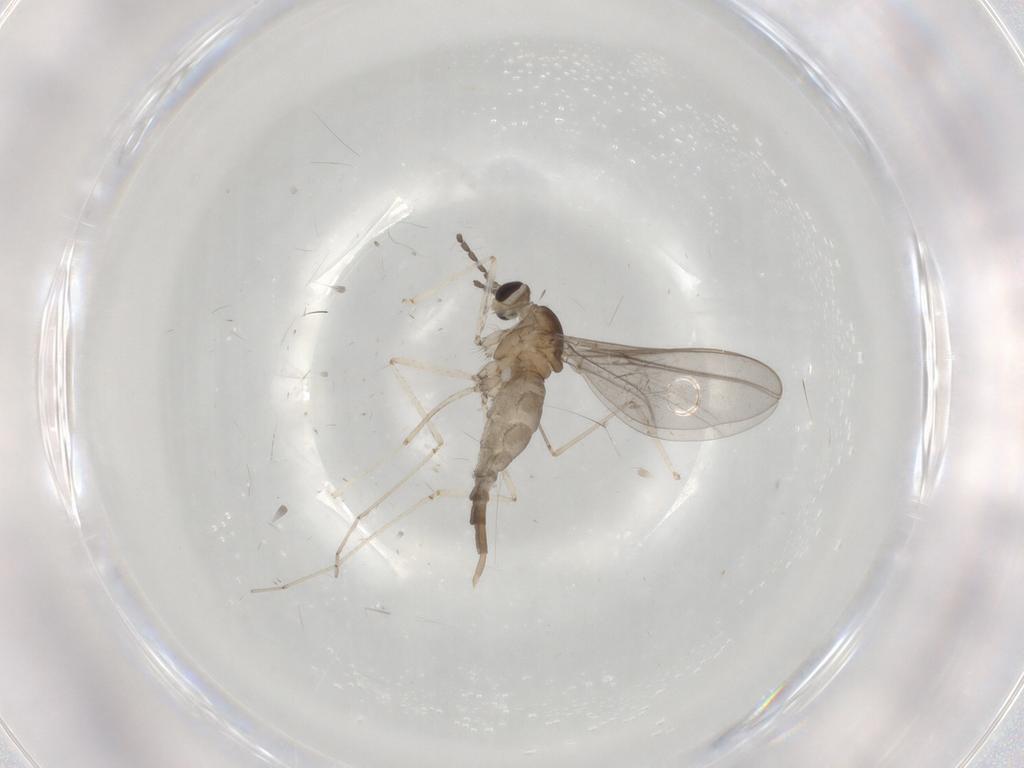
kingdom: Animalia
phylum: Arthropoda
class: Insecta
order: Diptera
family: Cecidomyiidae
